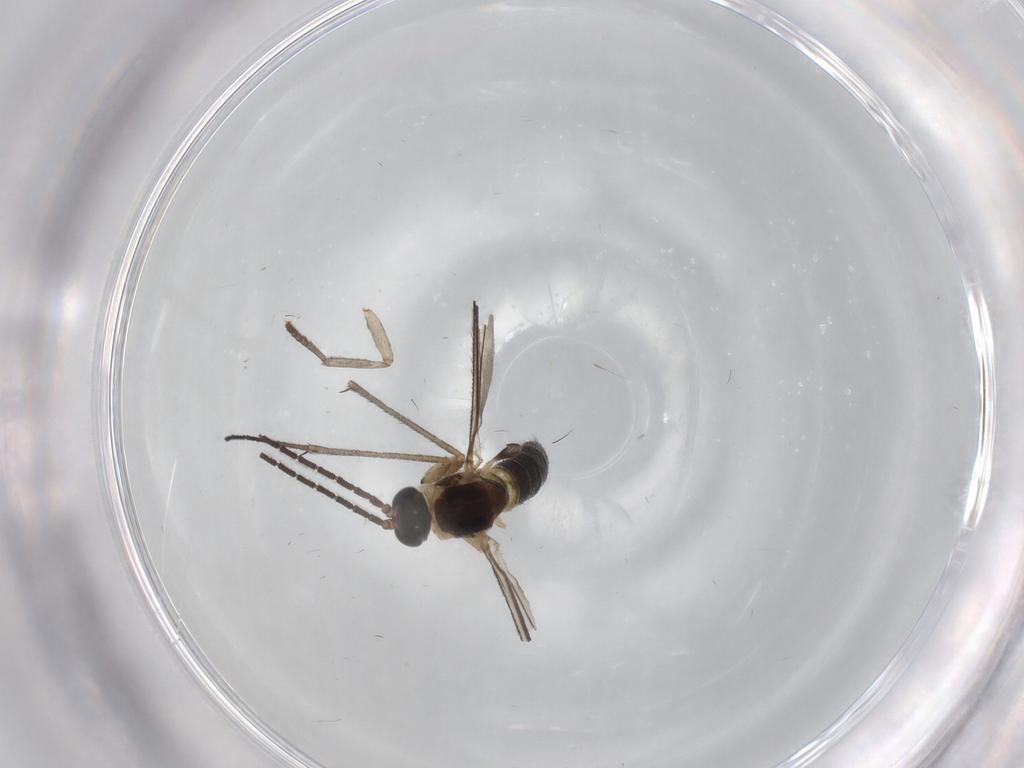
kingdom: Animalia
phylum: Arthropoda
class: Insecta
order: Diptera
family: Sciaridae
